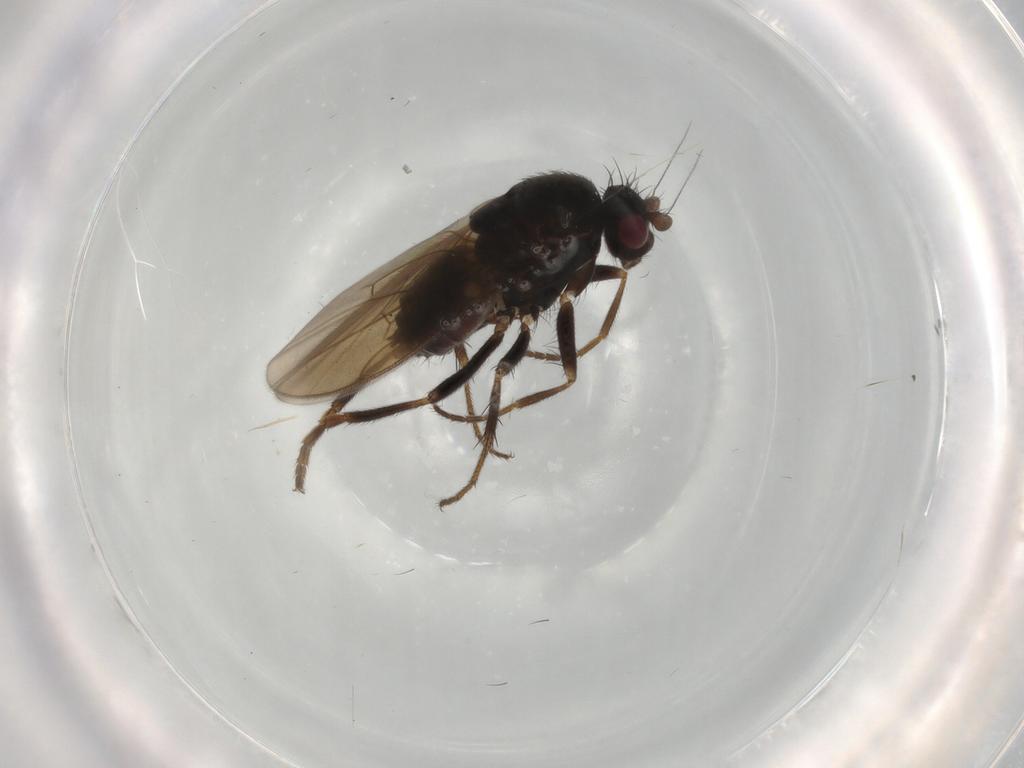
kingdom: Animalia
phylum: Arthropoda
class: Insecta
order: Diptera
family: Sphaeroceridae
